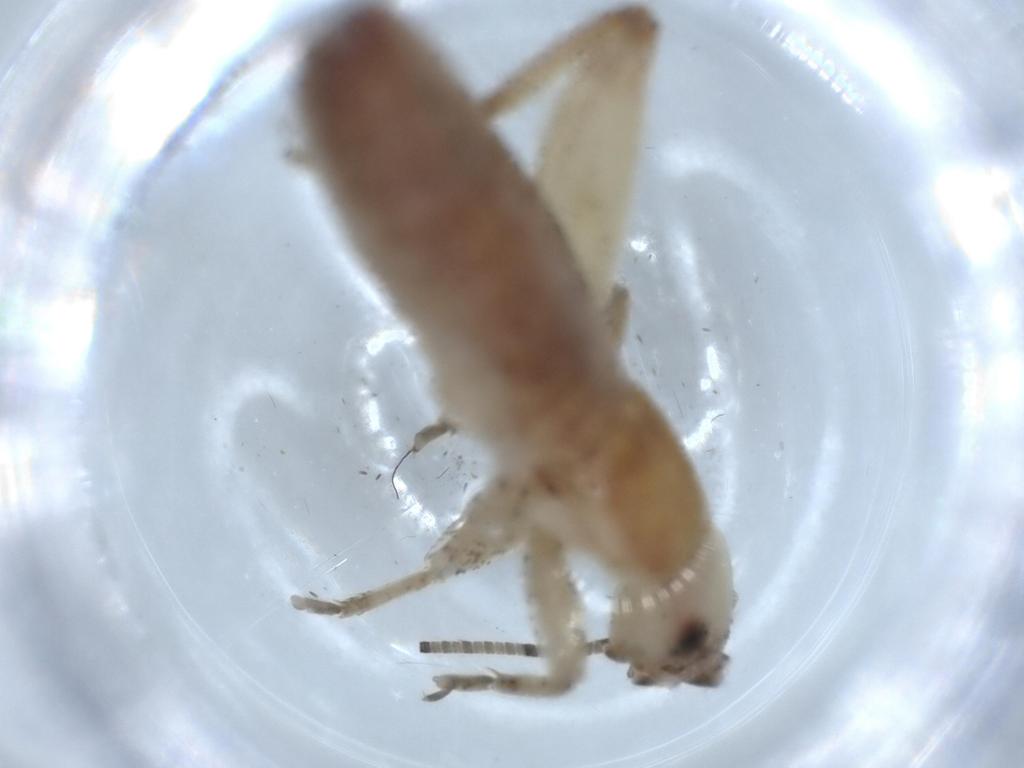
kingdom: Animalia
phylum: Arthropoda
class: Insecta
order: Orthoptera
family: Mogoplistidae
